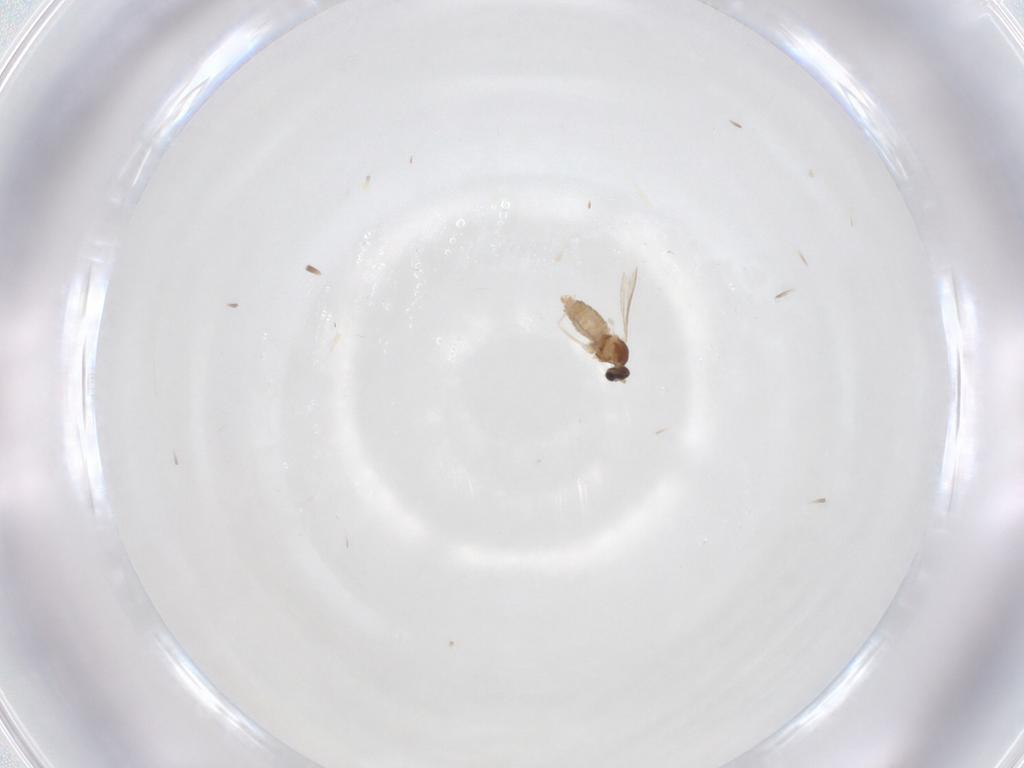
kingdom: Animalia
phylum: Arthropoda
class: Insecta
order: Diptera
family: Cecidomyiidae
